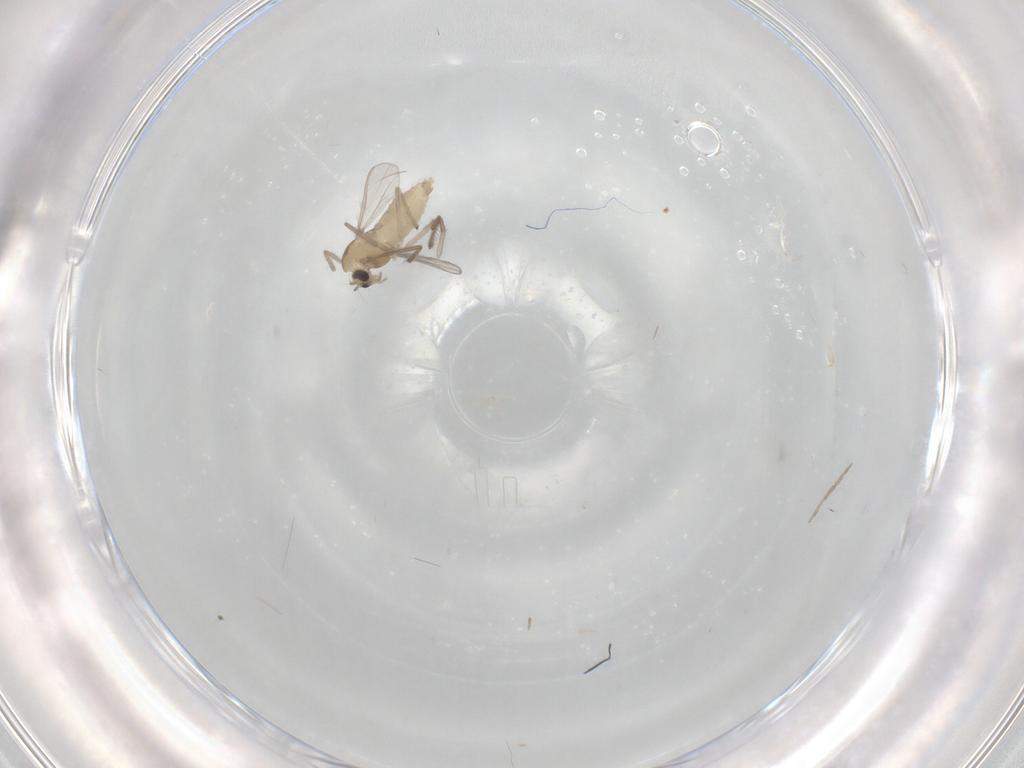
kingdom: Animalia
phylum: Arthropoda
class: Insecta
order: Diptera
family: Chironomidae
